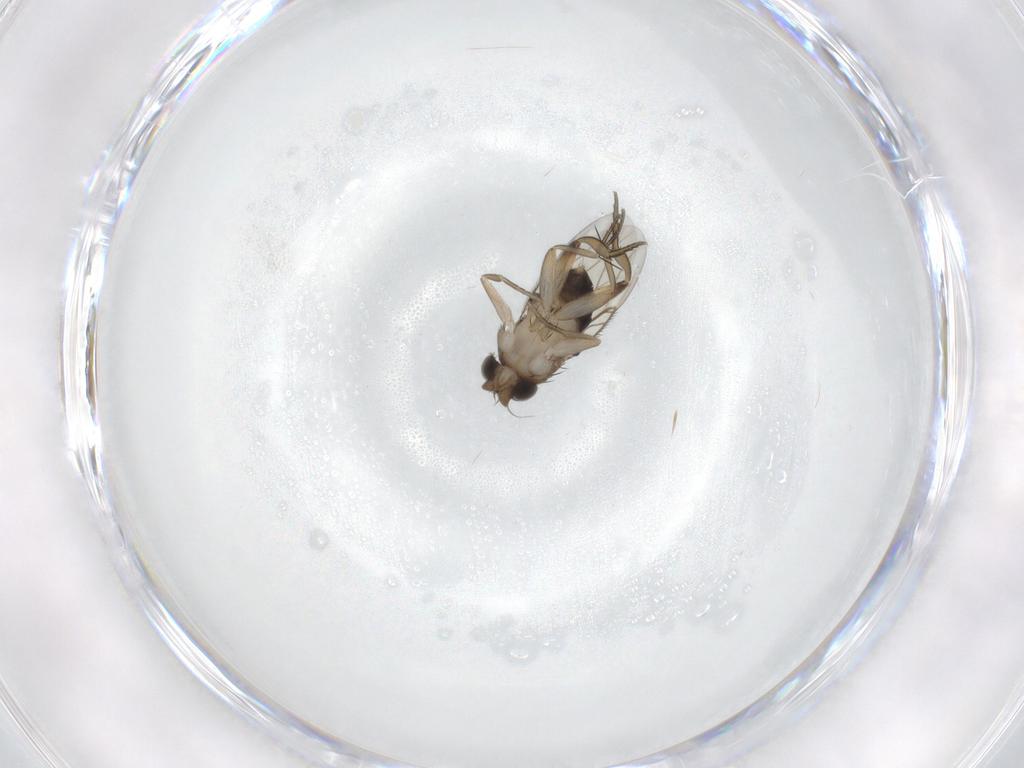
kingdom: Animalia
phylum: Arthropoda
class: Insecta
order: Diptera
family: Phoridae
